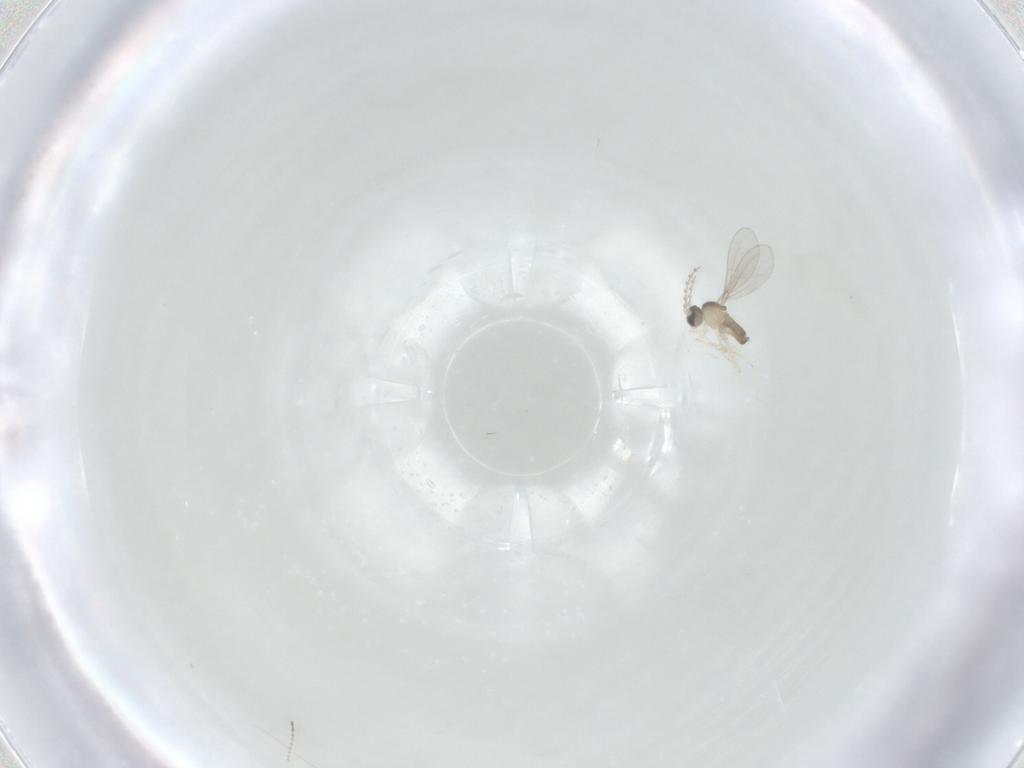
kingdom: Animalia
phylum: Arthropoda
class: Insecta
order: Diptera
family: Cecidomyiidae
